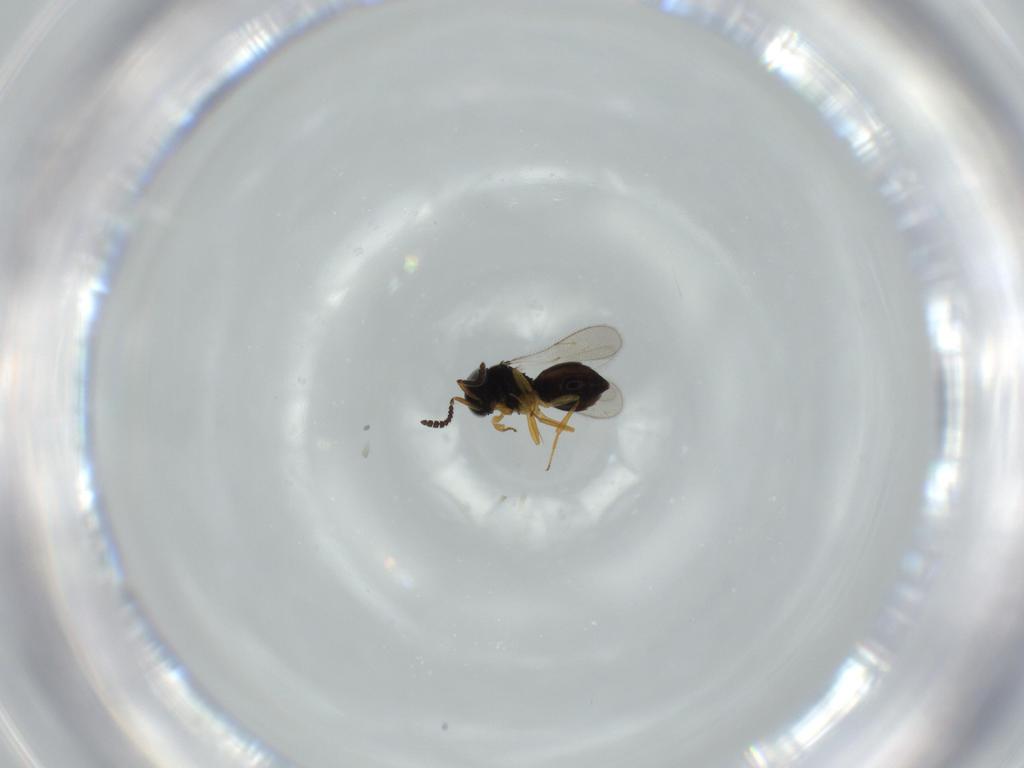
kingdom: Animalia
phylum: Arthropoda
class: Insecta
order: Hymenoptera
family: Scelionidae
